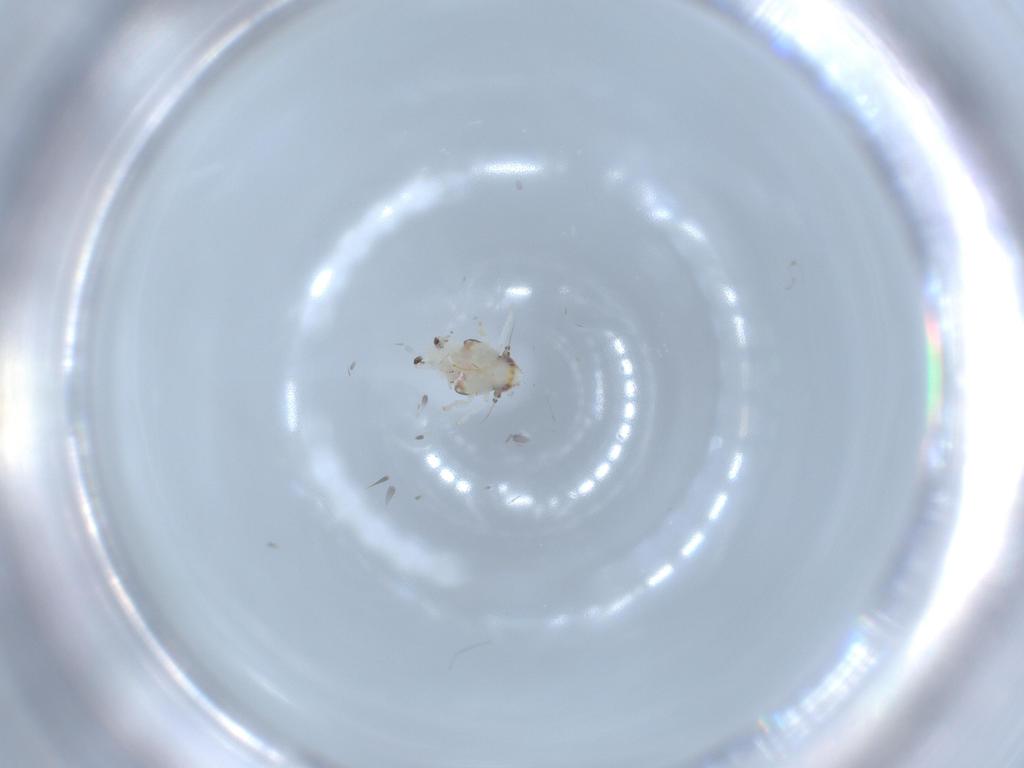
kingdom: Animalia
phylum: Arthropoda
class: Insecta
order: Hemiptera
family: Nogodinidae
